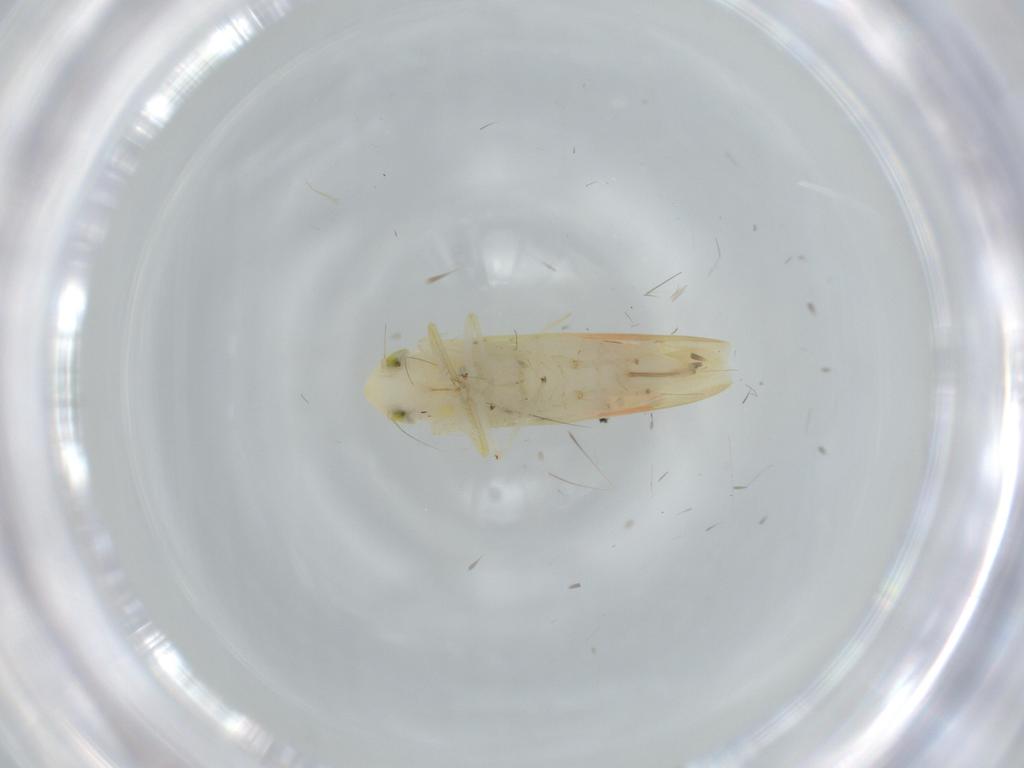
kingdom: Animalia
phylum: Arthropoda
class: Insecta
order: Hemiptera
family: Cicadellidae
